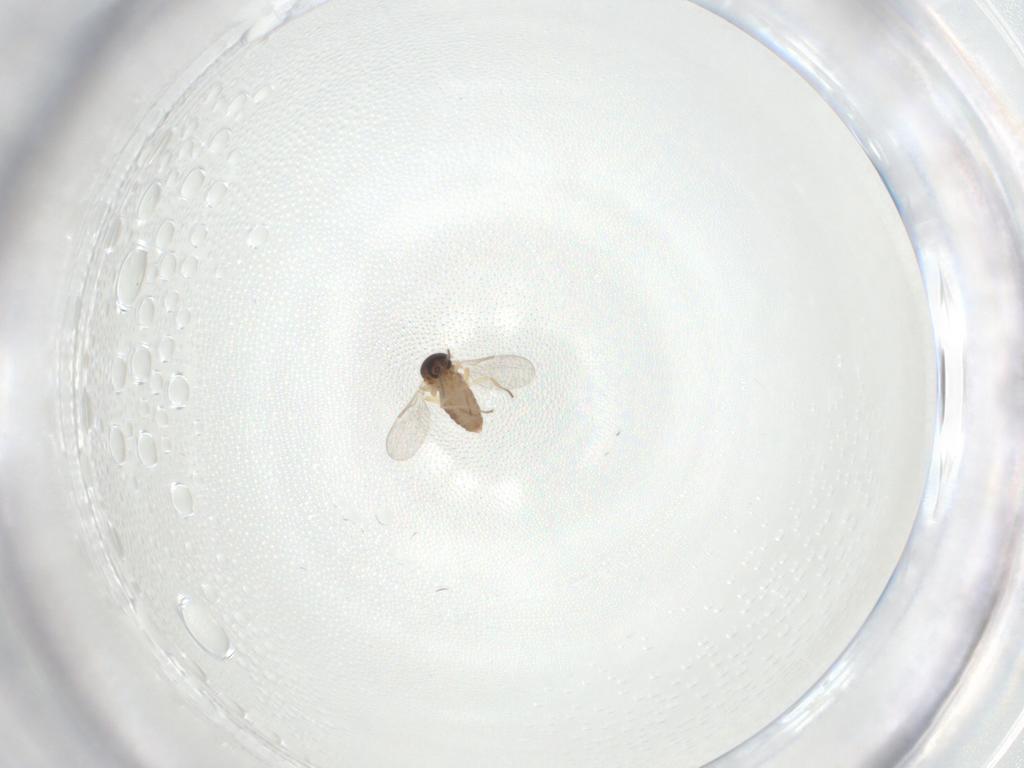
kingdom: Animalia
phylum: Arthropoda
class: Insecta
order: Diptera
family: Ceratopogonidae
